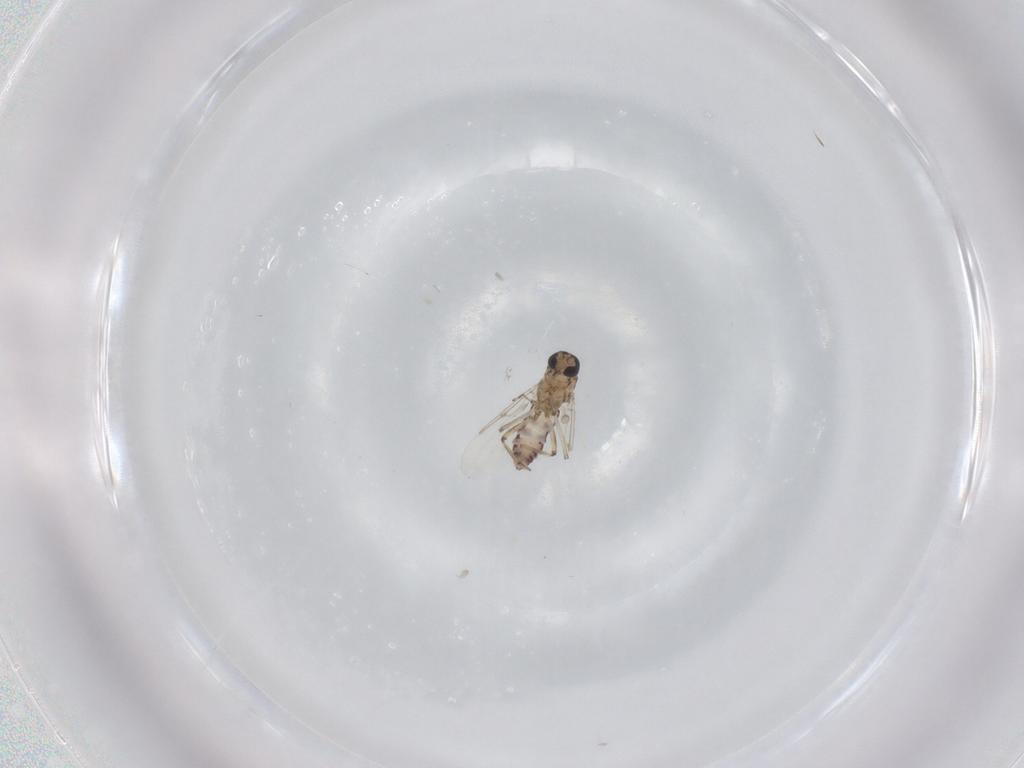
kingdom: Animalia
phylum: Arthropoda
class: Insecta
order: Diptera
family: Ceratopogonidae
